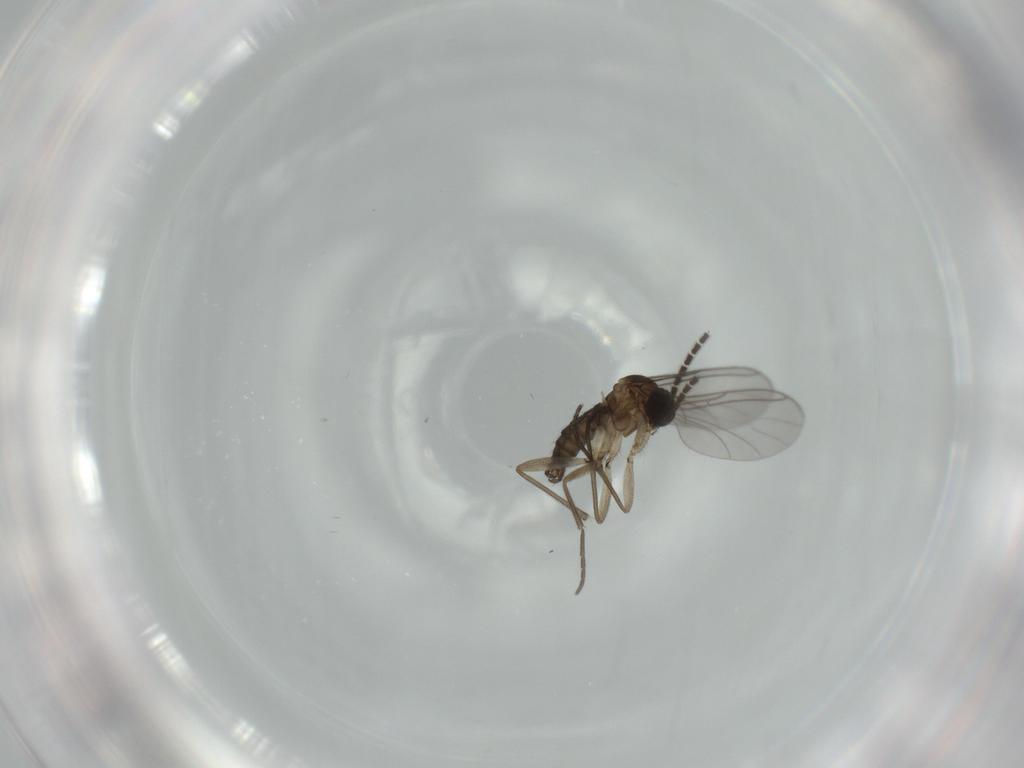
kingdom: Animalia
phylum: Arthropoda
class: Insecta
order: Diptera
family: Sciaridae
